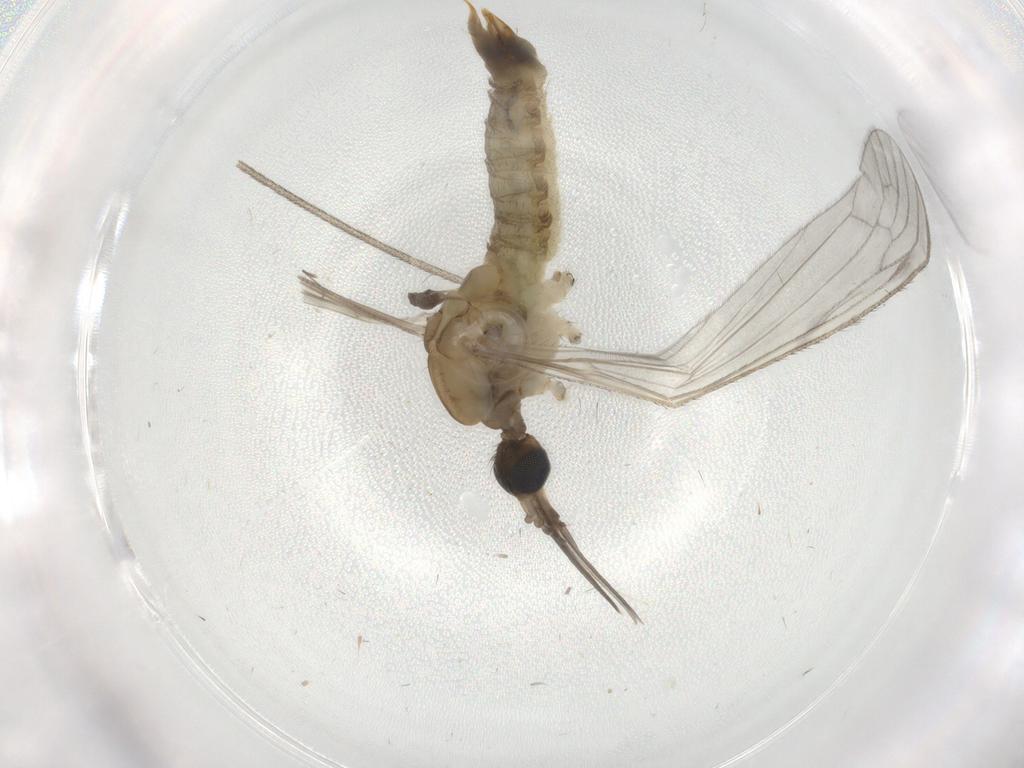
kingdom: Animalia
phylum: Arthropoda
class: Insecta
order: Diptera
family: Limoniidae
